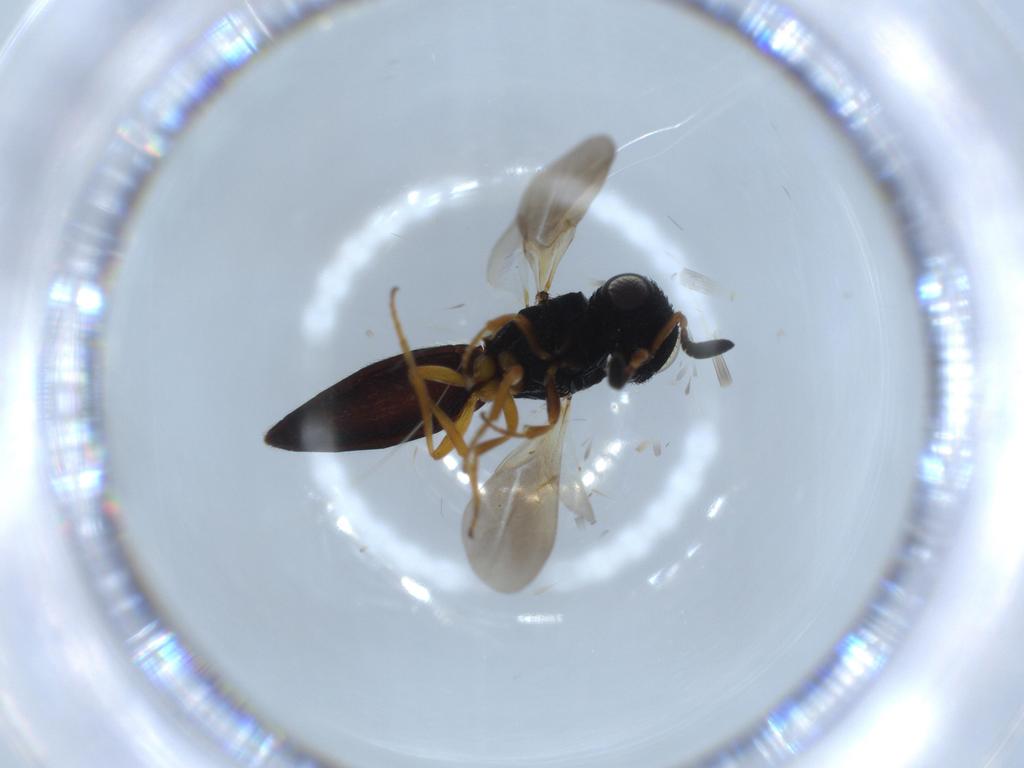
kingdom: Animalia
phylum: Arthropoda
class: Insecta
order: Hymenoptera
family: Scelionidae
